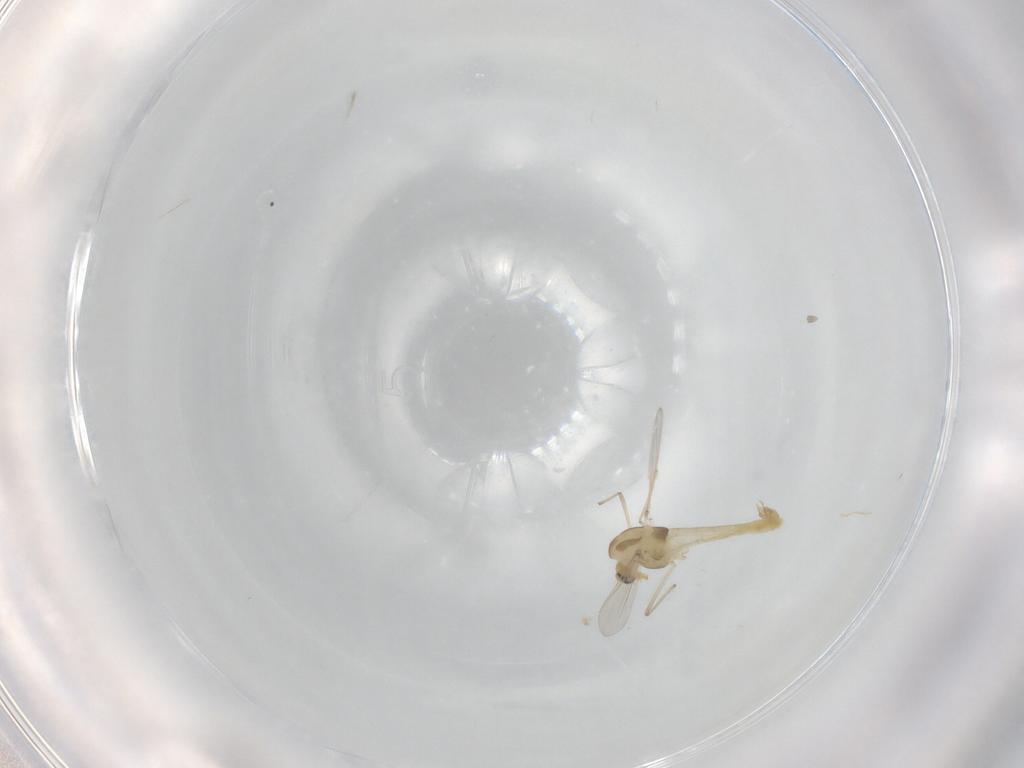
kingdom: Animalia
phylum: Arthropoda
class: Insecta
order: Diptera
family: Chironomidae
